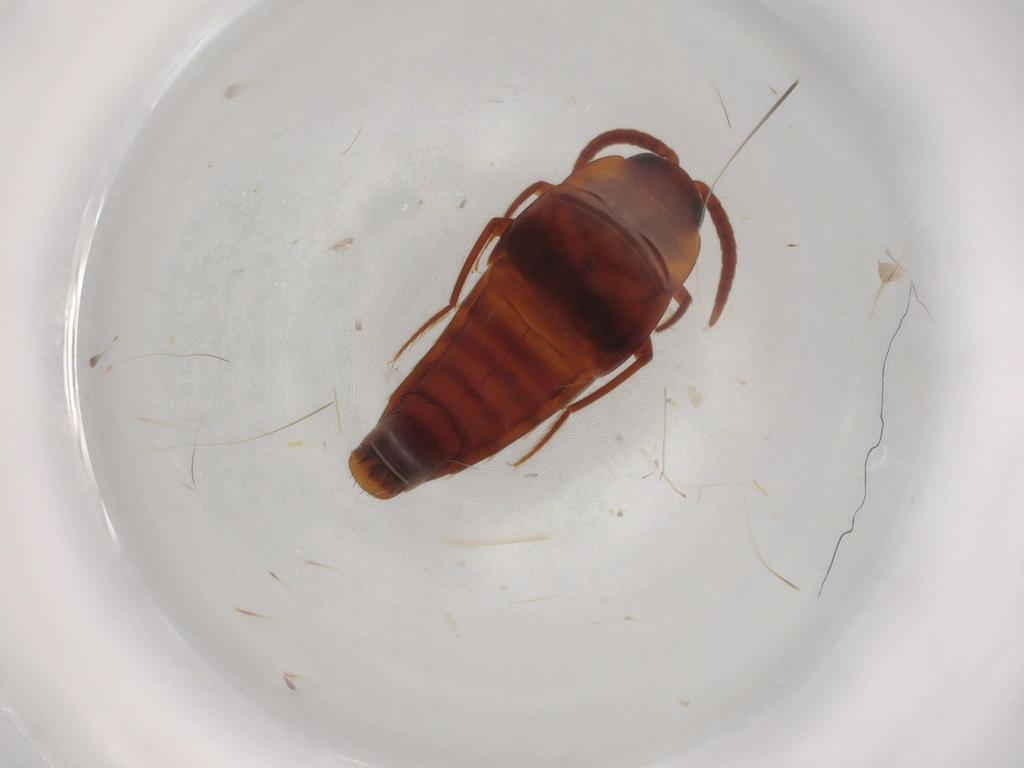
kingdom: Animalia
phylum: Arthropoda
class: Insecta
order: Coleoptera
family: Staphylinidae
